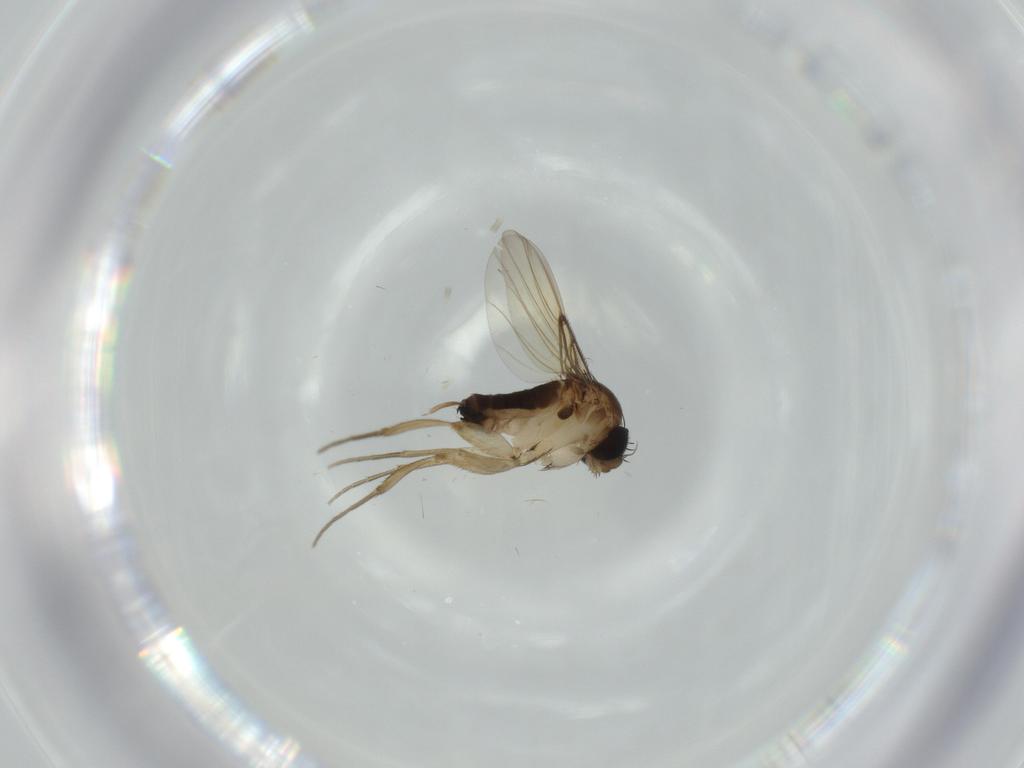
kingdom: Animalia
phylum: Arthropoda
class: Insecta
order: Diptera
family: Phoridae
